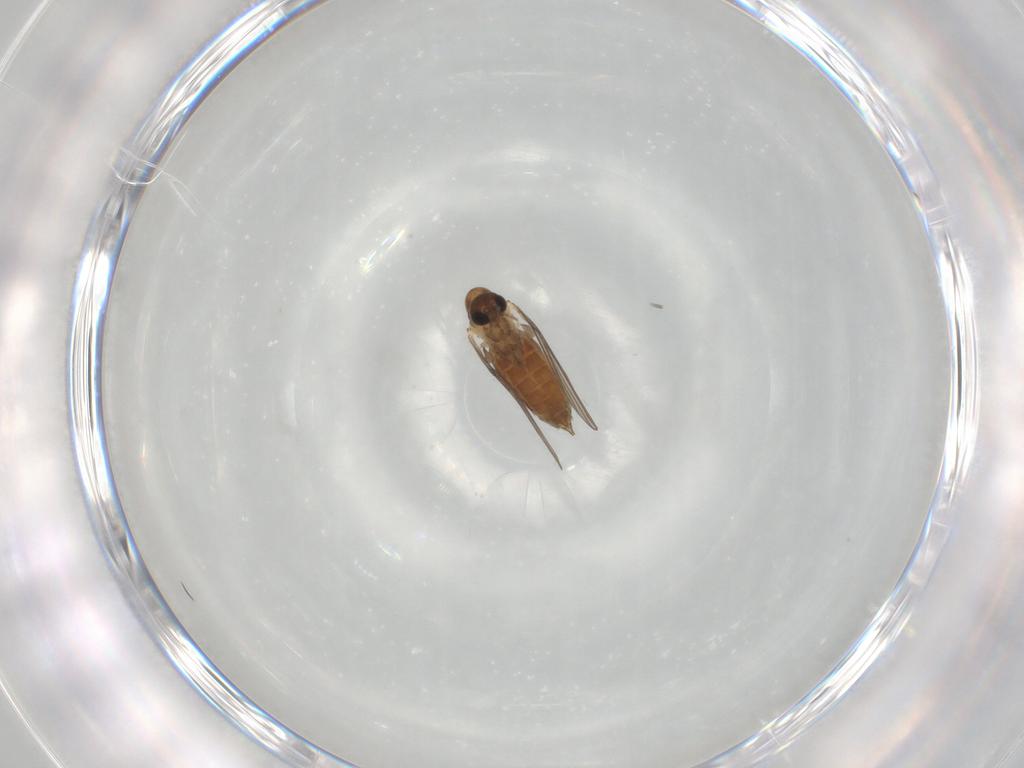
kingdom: Animalia
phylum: Arthropoda
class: Insecta
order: Diptera
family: Psychodidae
